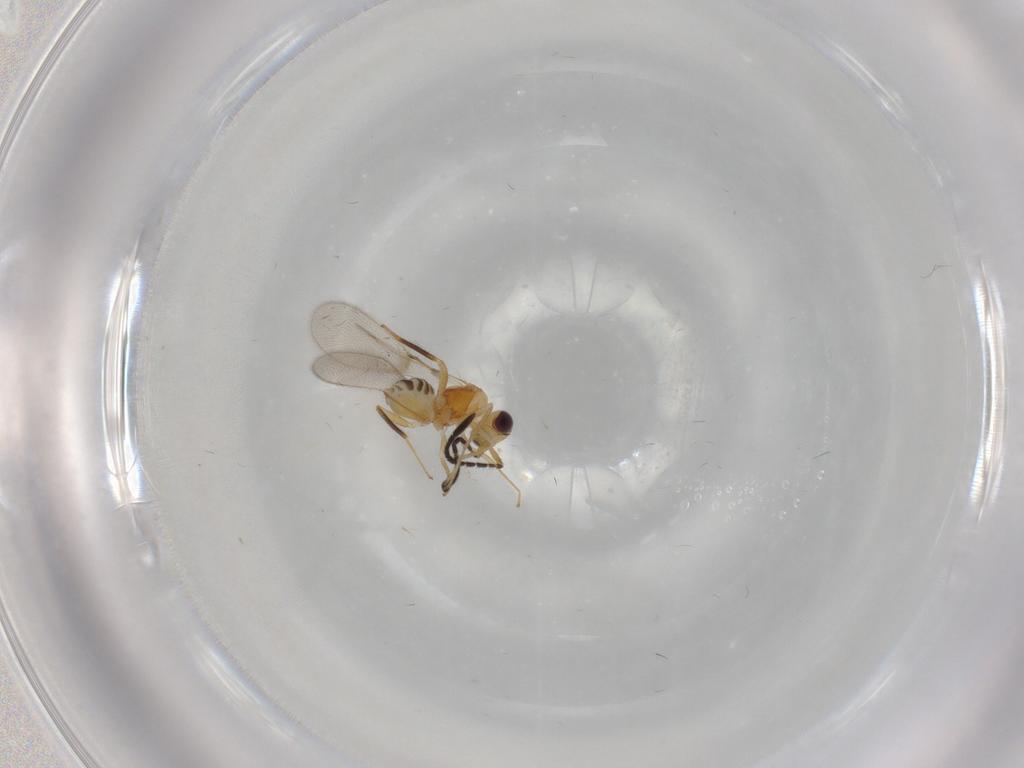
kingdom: Animalia
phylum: Arthropoda
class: Insecta
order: Hymenoptera
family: Mymaridae
